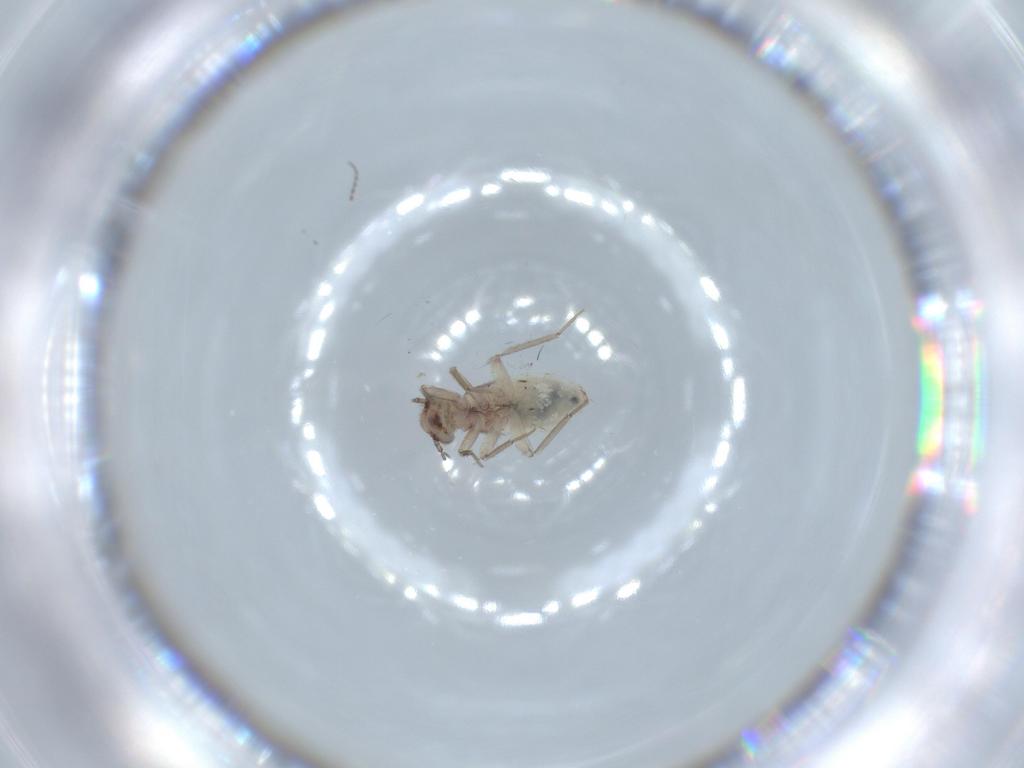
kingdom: Animalia
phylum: Arthropoda
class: Insecta
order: Psocodea
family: Lepidopsocidae
